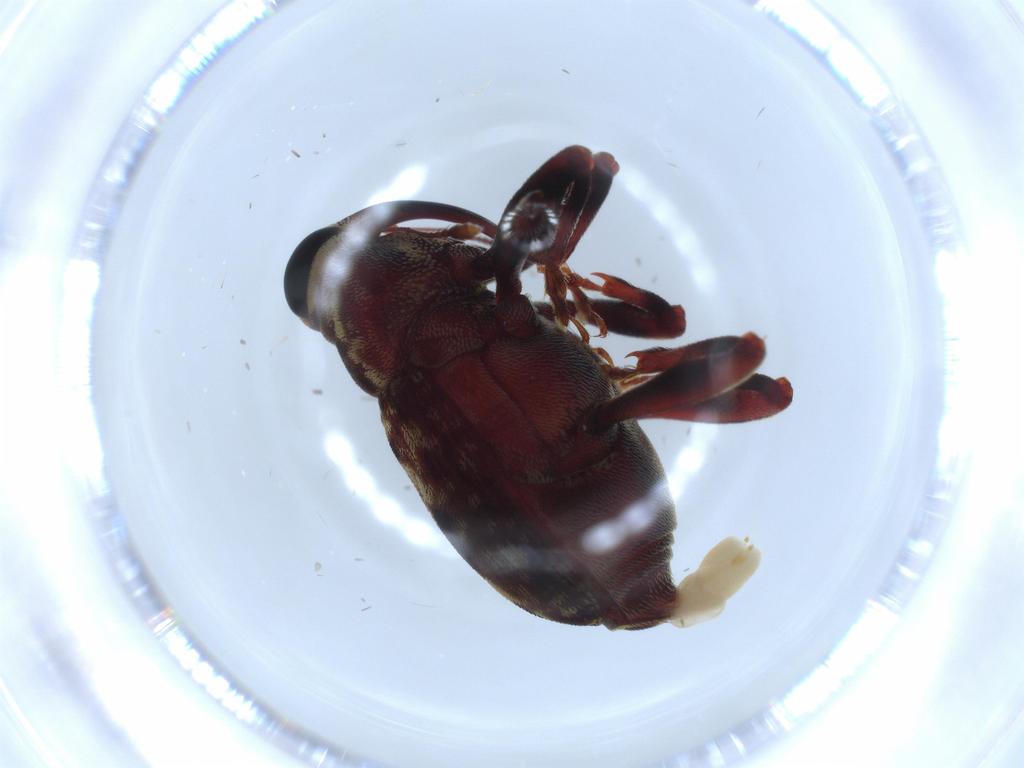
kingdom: Animalia
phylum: Arthropoda
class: Insecta
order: Coleoptera
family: Curculionidae
